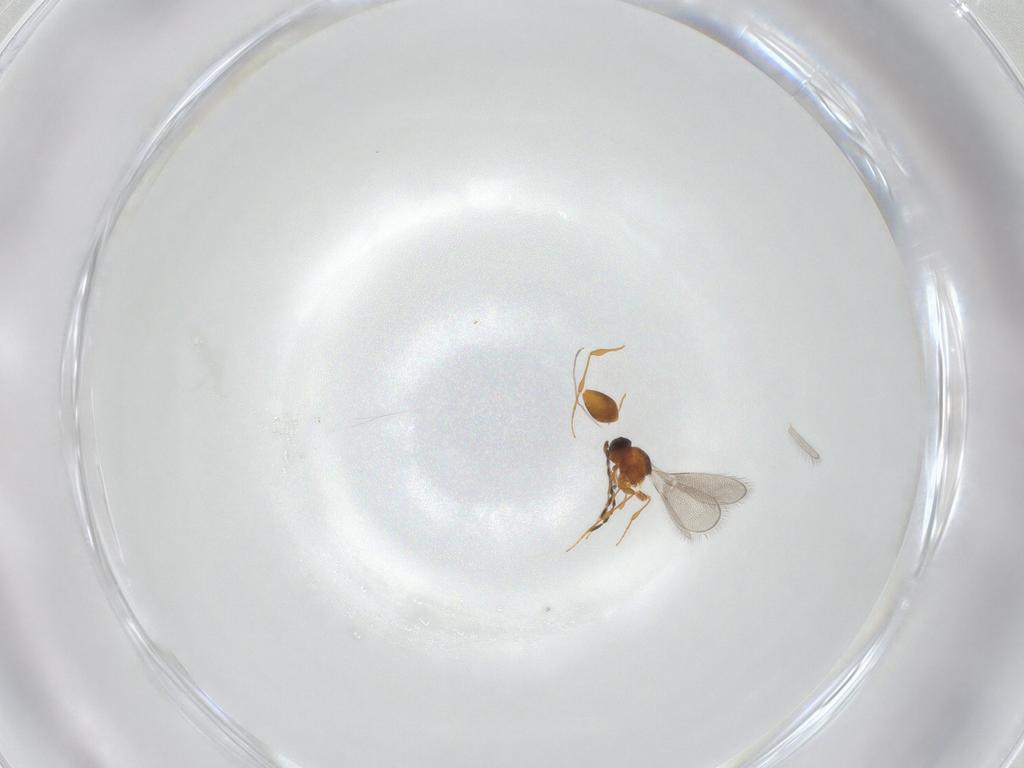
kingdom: Animalia
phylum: Arthropoda
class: Insecta
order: Hymenoptera
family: Platygastridae
